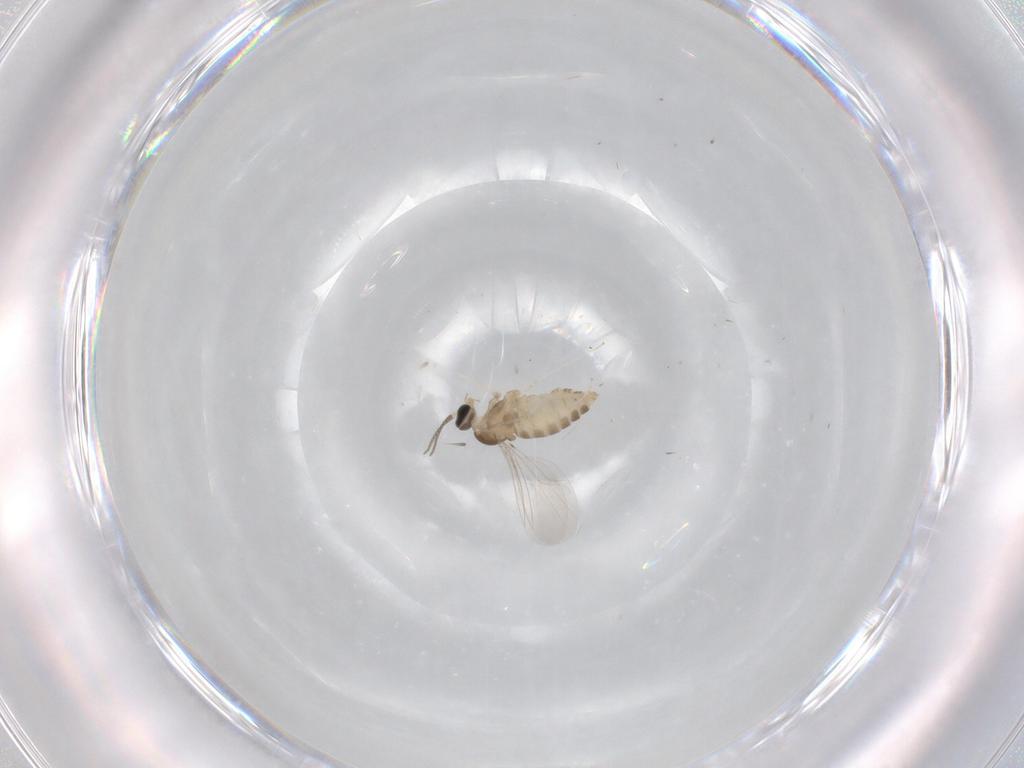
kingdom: Animalia
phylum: Arthropoda
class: Insecta
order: Diptera
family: Cecidomyiidae
